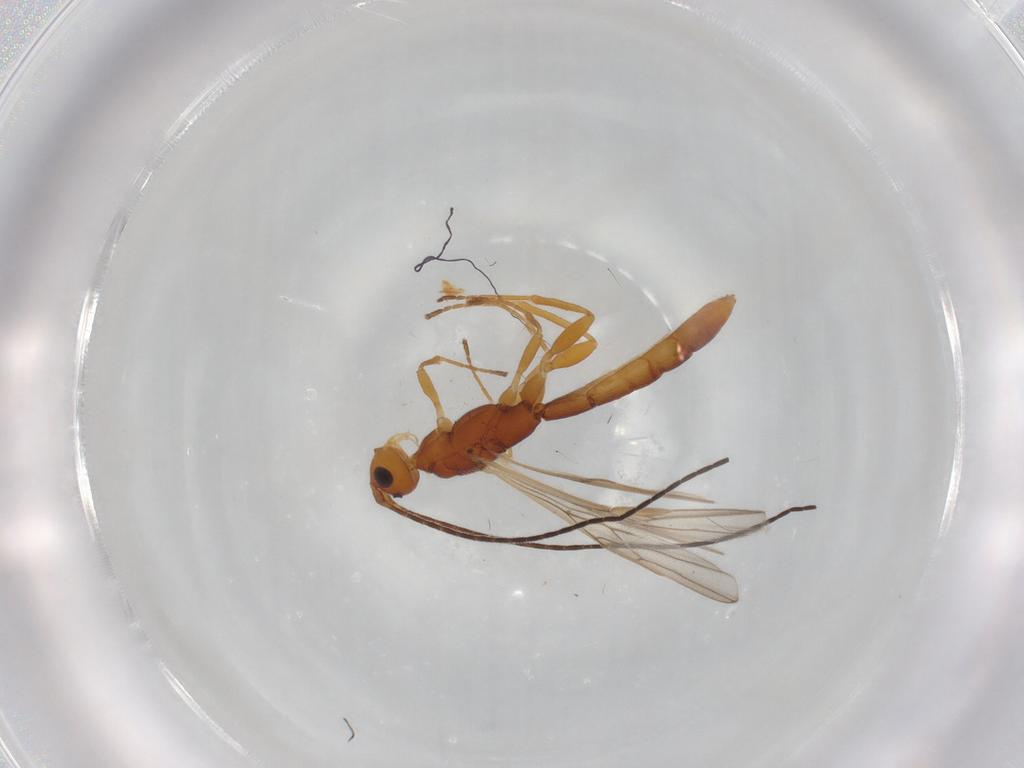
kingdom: Animalia
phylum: Arthropoda
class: Insecta
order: Hymenoptera
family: Braconidae
